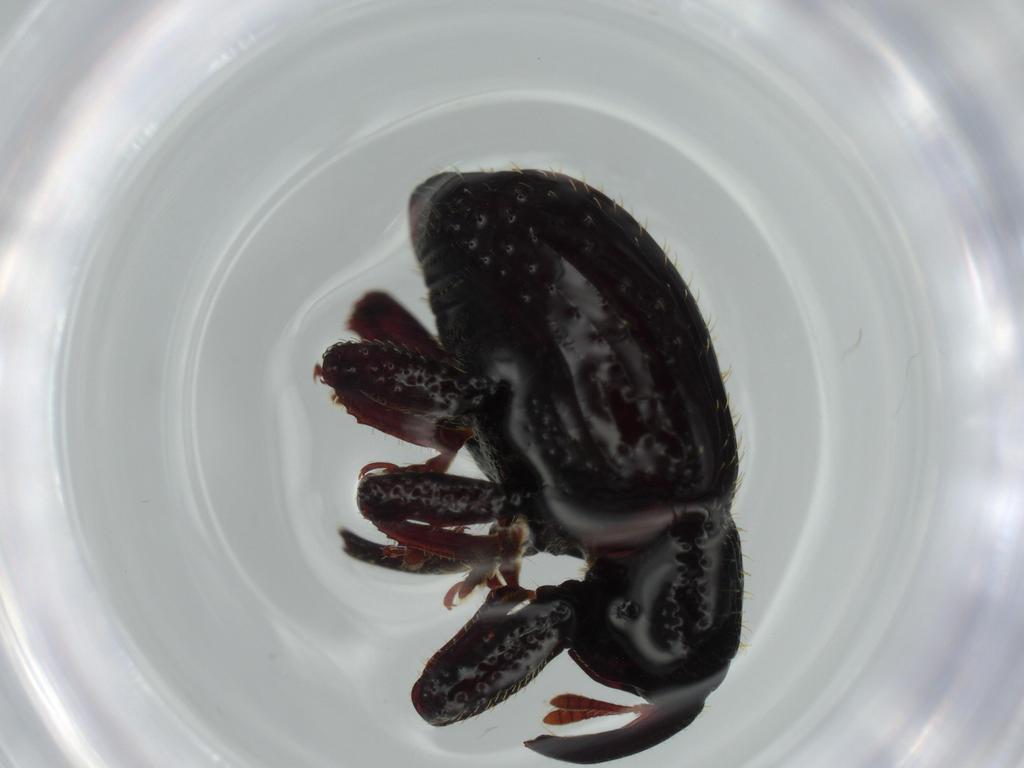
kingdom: Animalia
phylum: Arthropoda
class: Insecta
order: Coleoptera
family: Curculionidae
